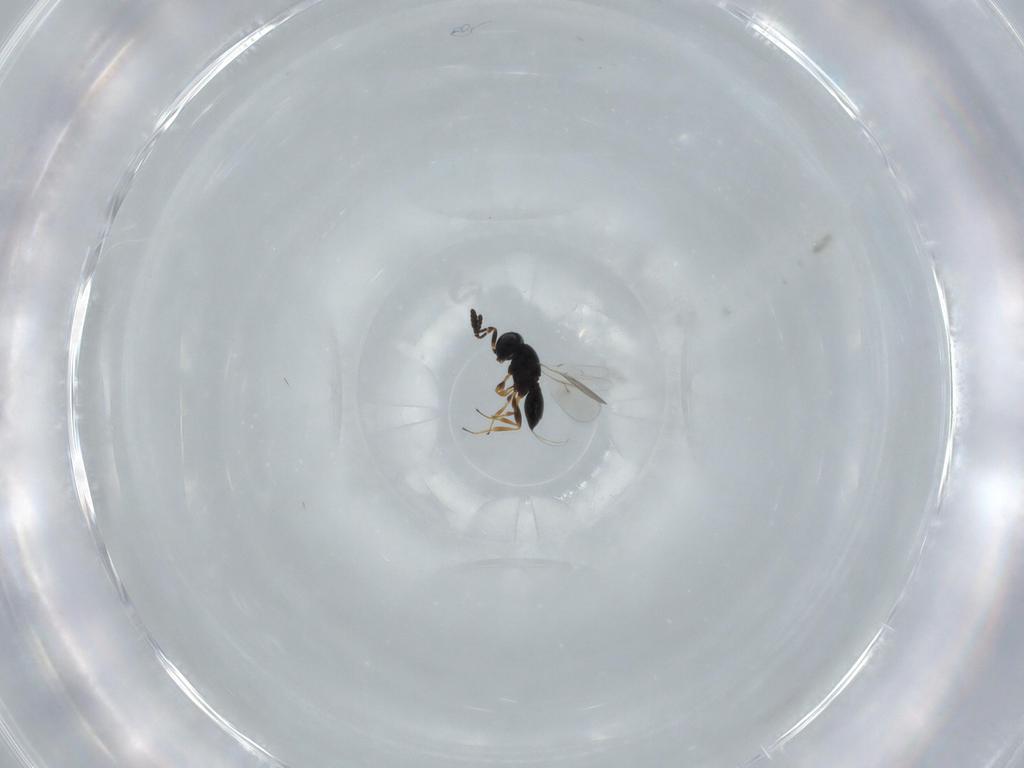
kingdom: Animalia
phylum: Arthropoda
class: Insecta
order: Hymenoptera
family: Scelionidae
